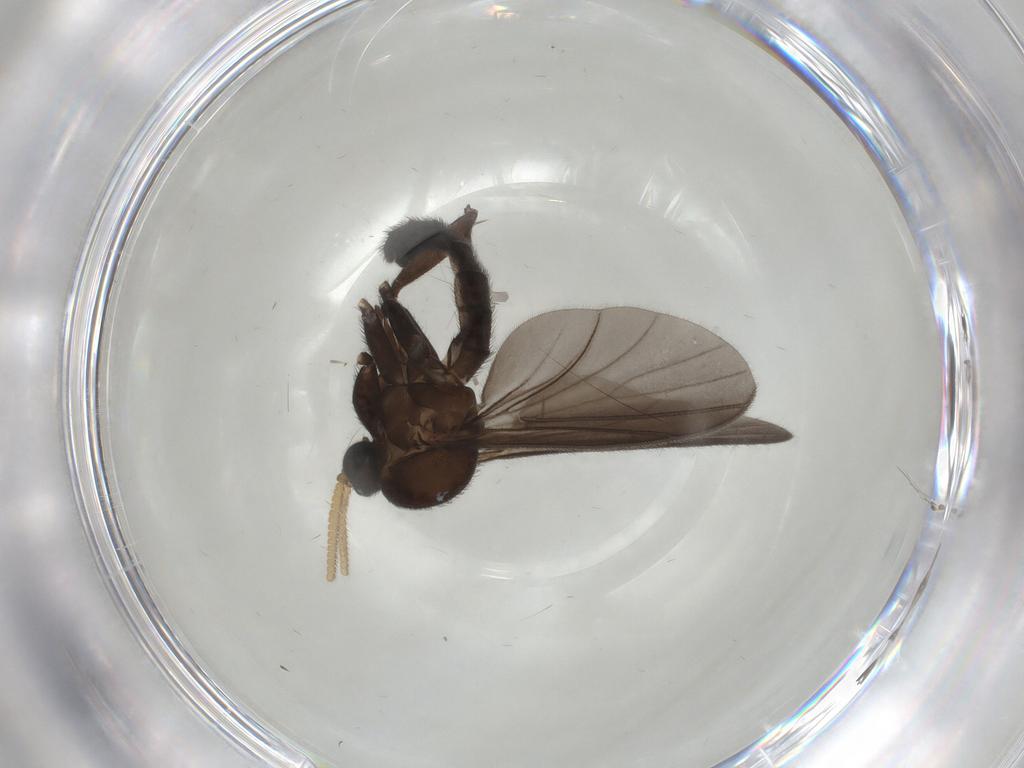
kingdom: Animalia
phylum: Arthropoda
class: Insecta
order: Diptera
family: Mycetophilidae
